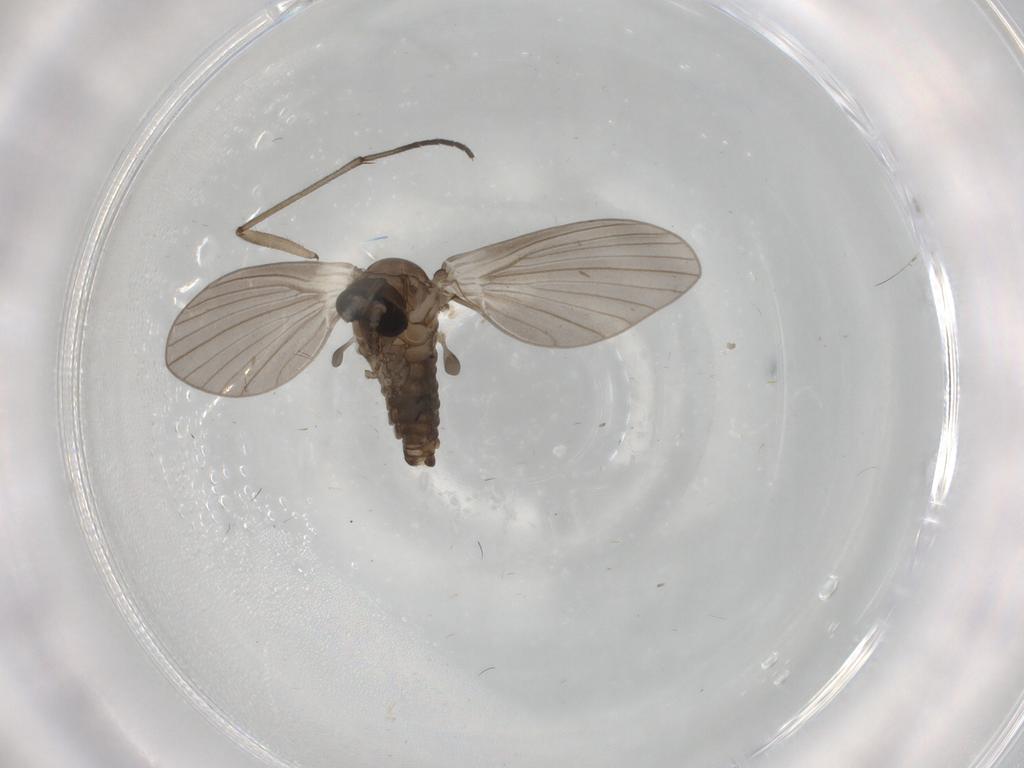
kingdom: Animalia
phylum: Arthropoda
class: Insecta
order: Diptera
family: Psychodidae
